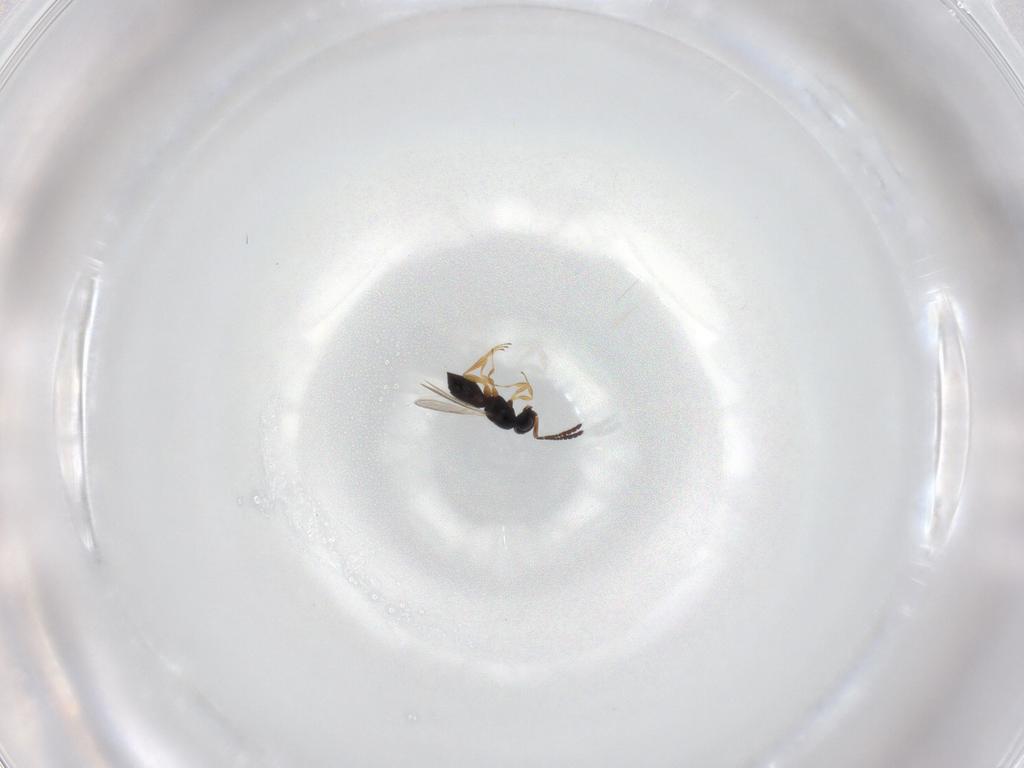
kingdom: Animalia
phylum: Arthropoda
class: Insecta
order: Hymenoptera
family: Scelionidae
